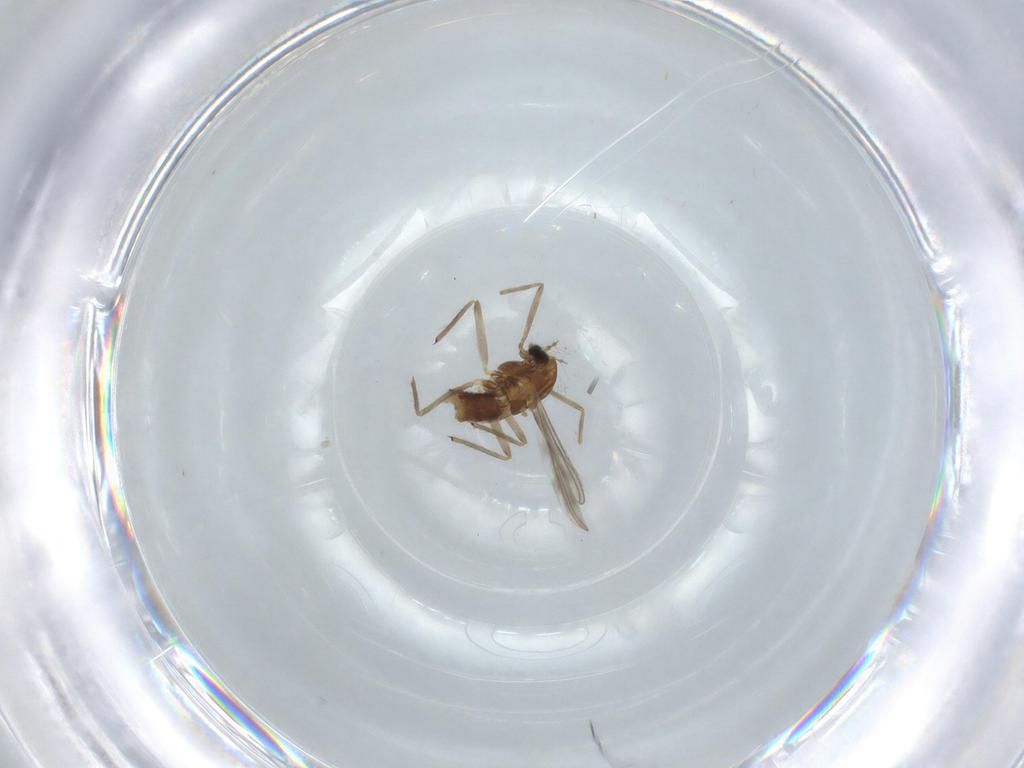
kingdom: Animalia
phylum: Arthropoda
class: Insecta
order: Diptera
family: Chironomidae
